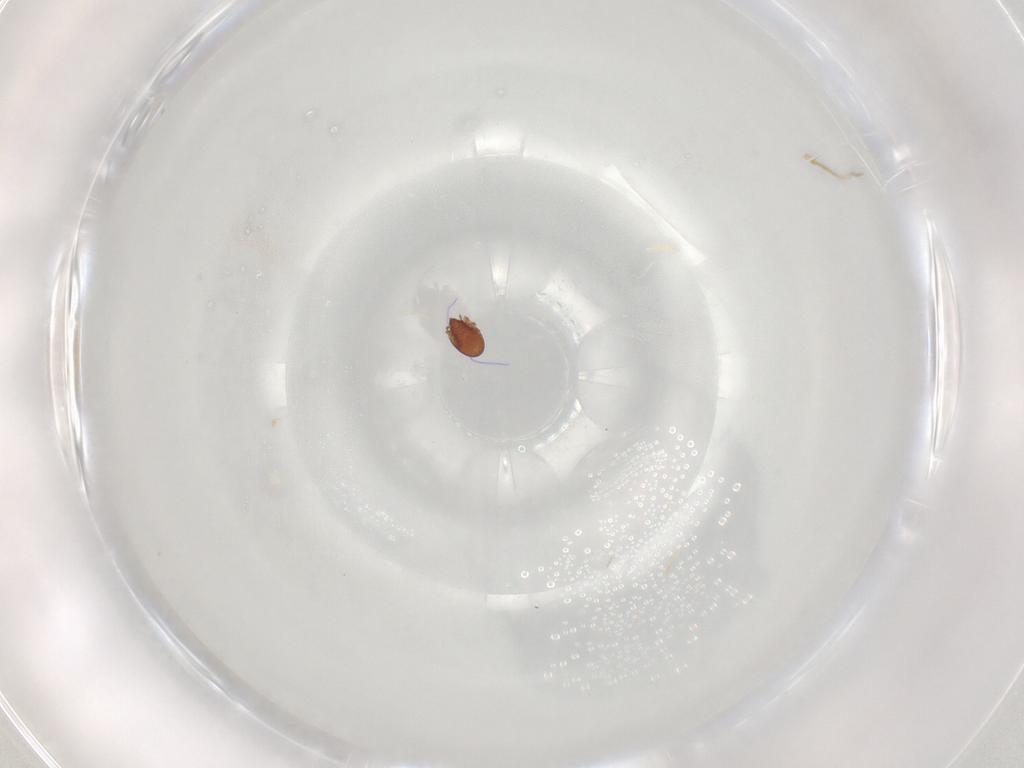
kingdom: Animalia
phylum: Arthropoda
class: Arachnida
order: Mesostigmata
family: Zerconidae
